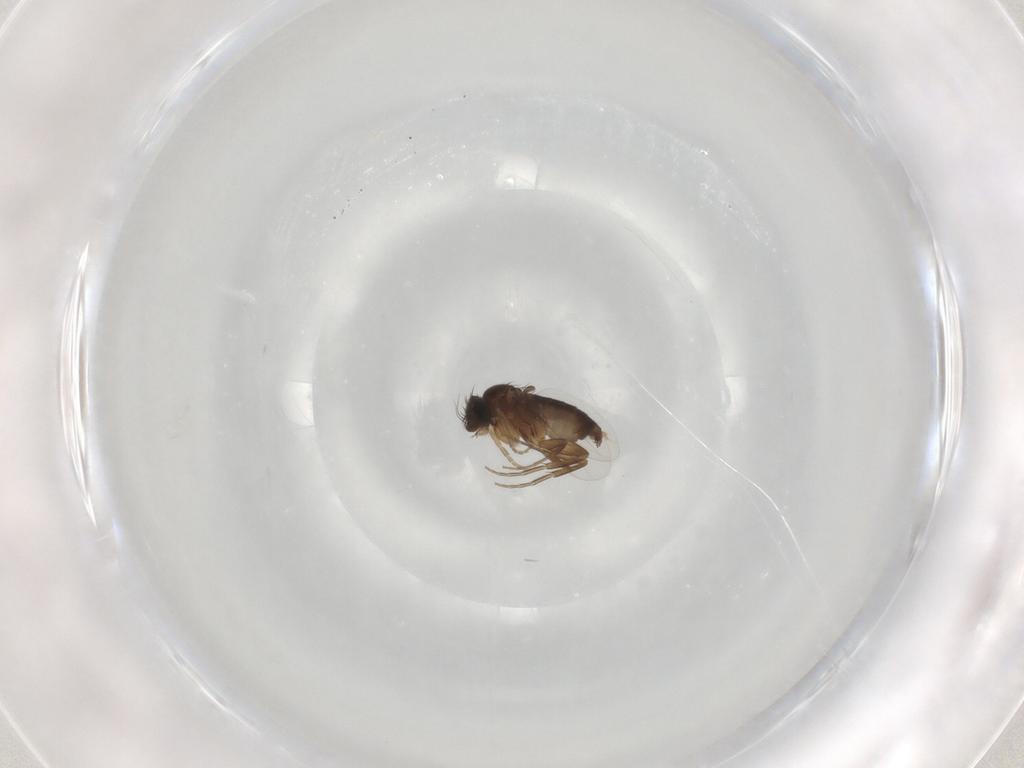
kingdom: Animalia
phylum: Arthropoda
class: Insecta
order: Diptera
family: Phoridae
